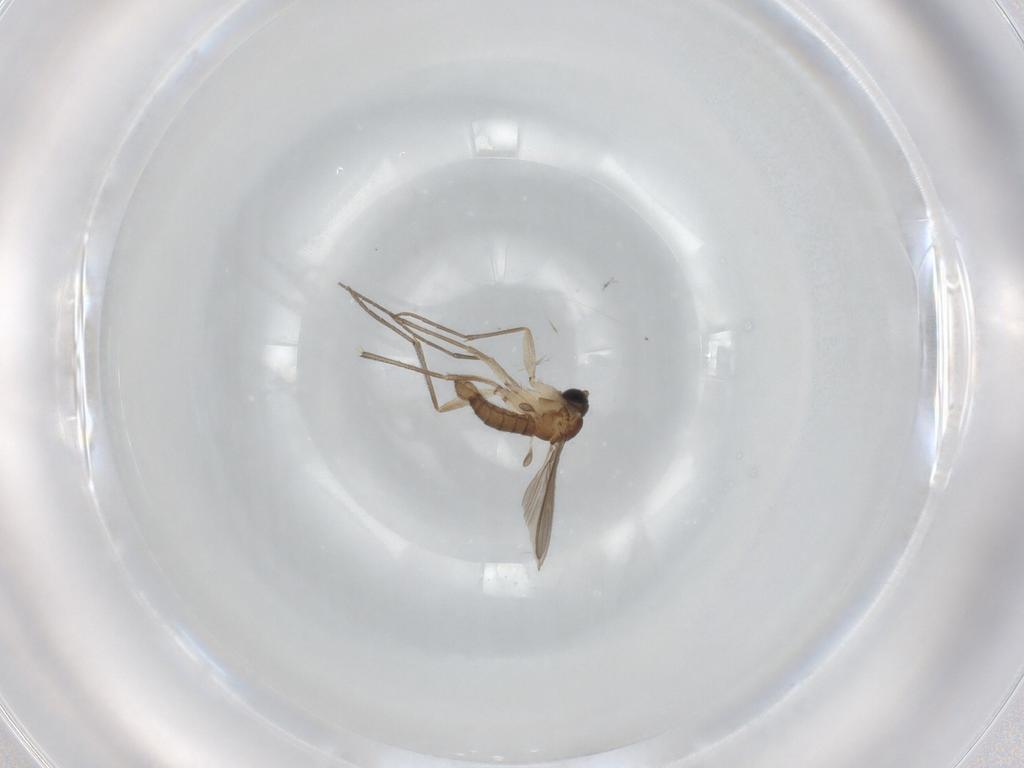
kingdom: Animalia
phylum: Arthropoda
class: Insecta
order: Diptera
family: Sciaridae
